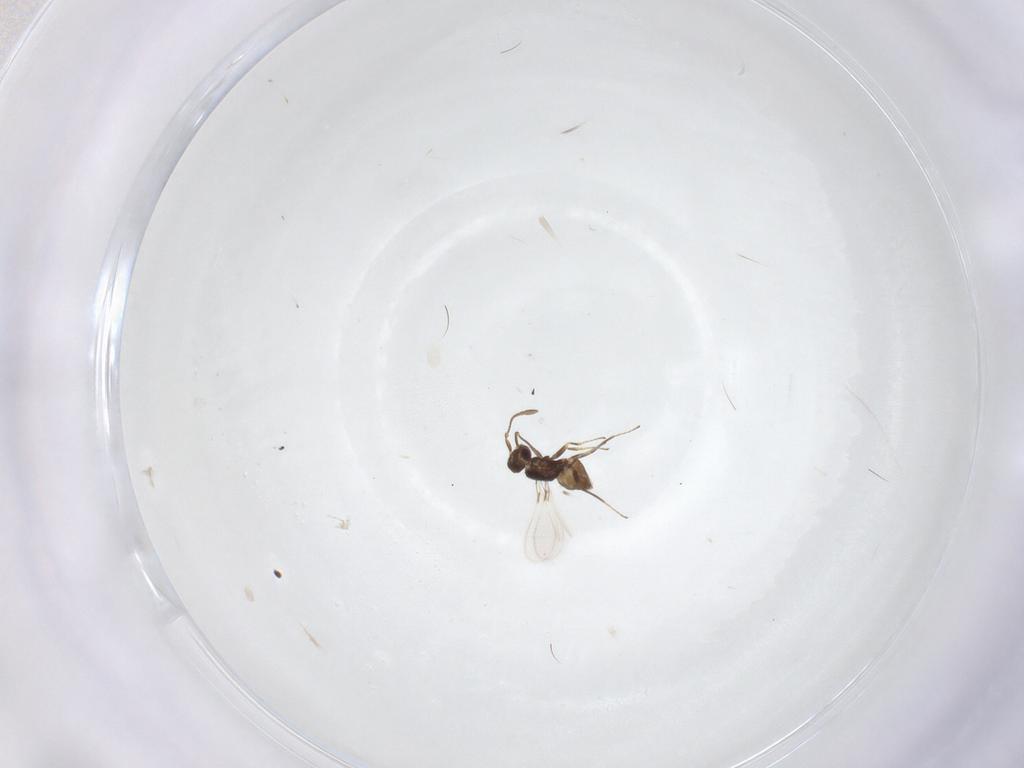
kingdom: Animalia
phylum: Arthropoda
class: Insecta
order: Hymenoptera
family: Mymaridae
